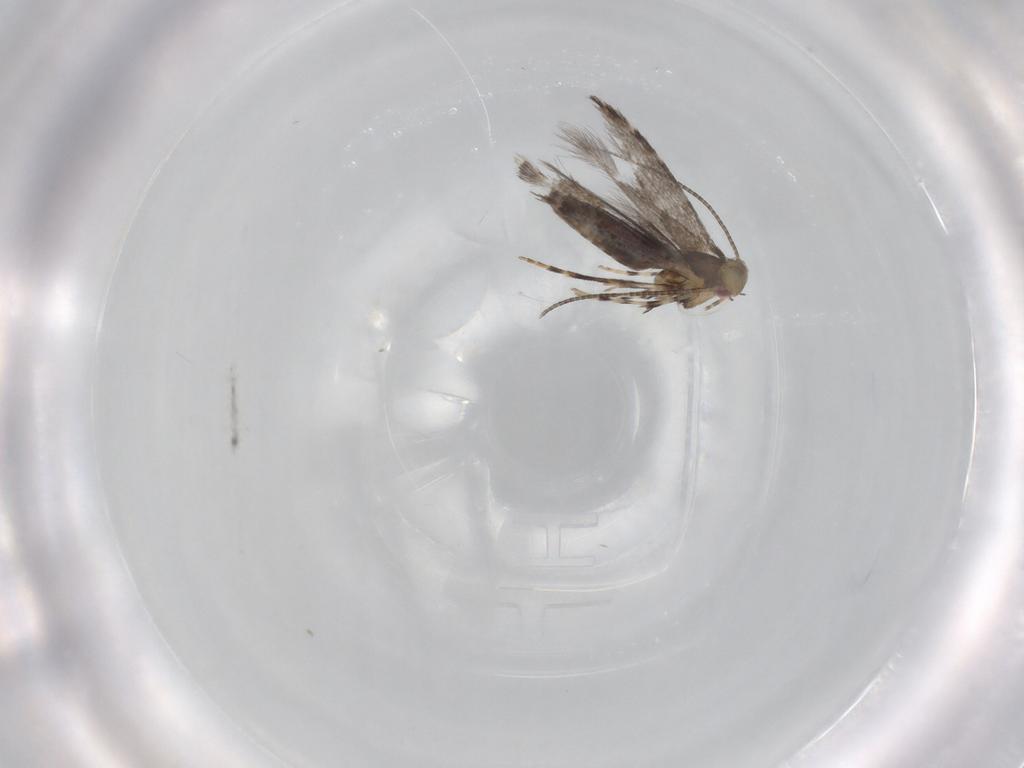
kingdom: Animalia
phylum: Arthropoda
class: Insecta
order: Lepidoptera
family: Gracillariidae
